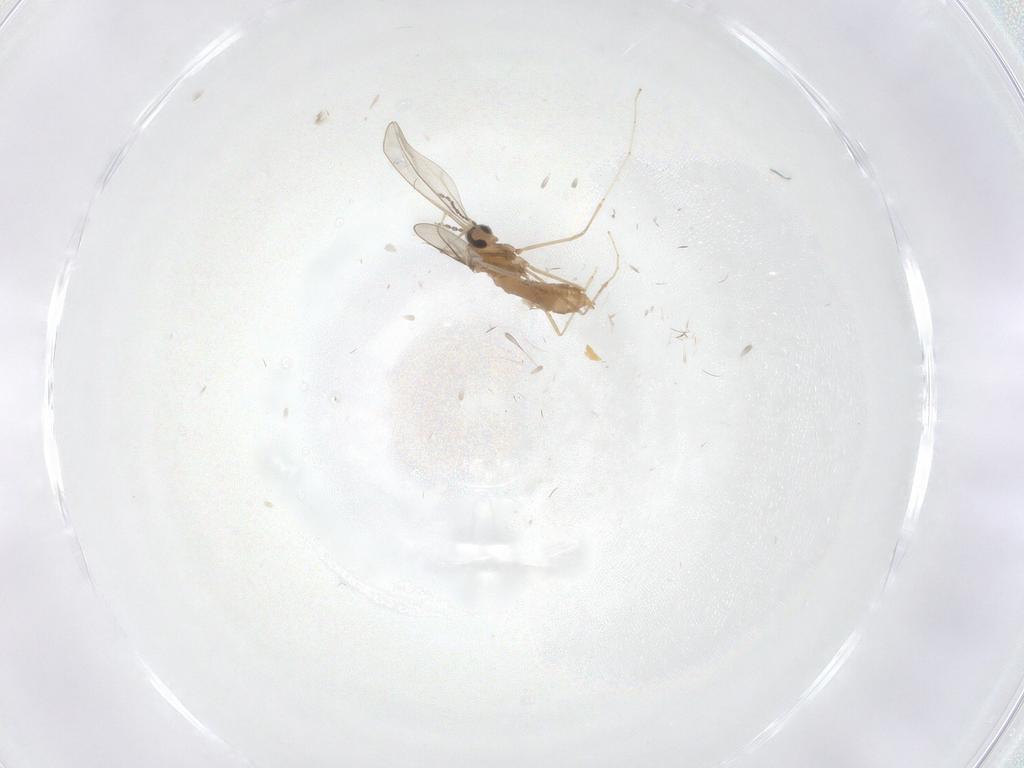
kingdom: Animalia
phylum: Arthropoda
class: Insecta
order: Diptera
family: Cecidomyiidae
